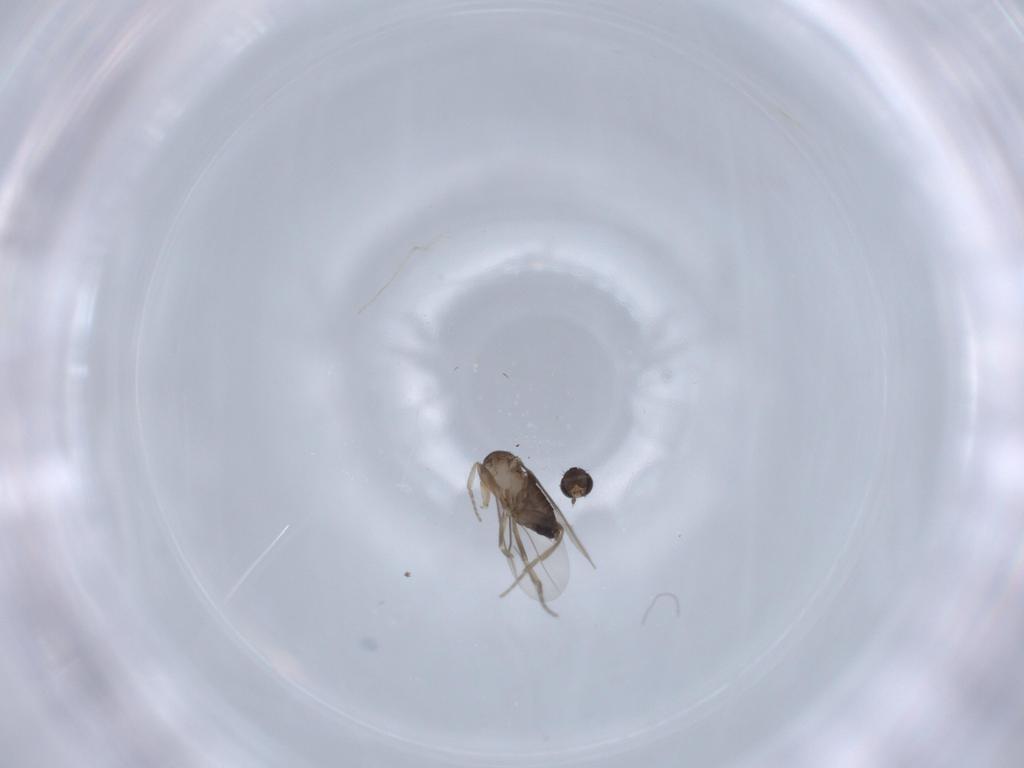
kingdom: Animalia
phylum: Arthropoda
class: Insecta
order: Diptera
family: Phoridae
